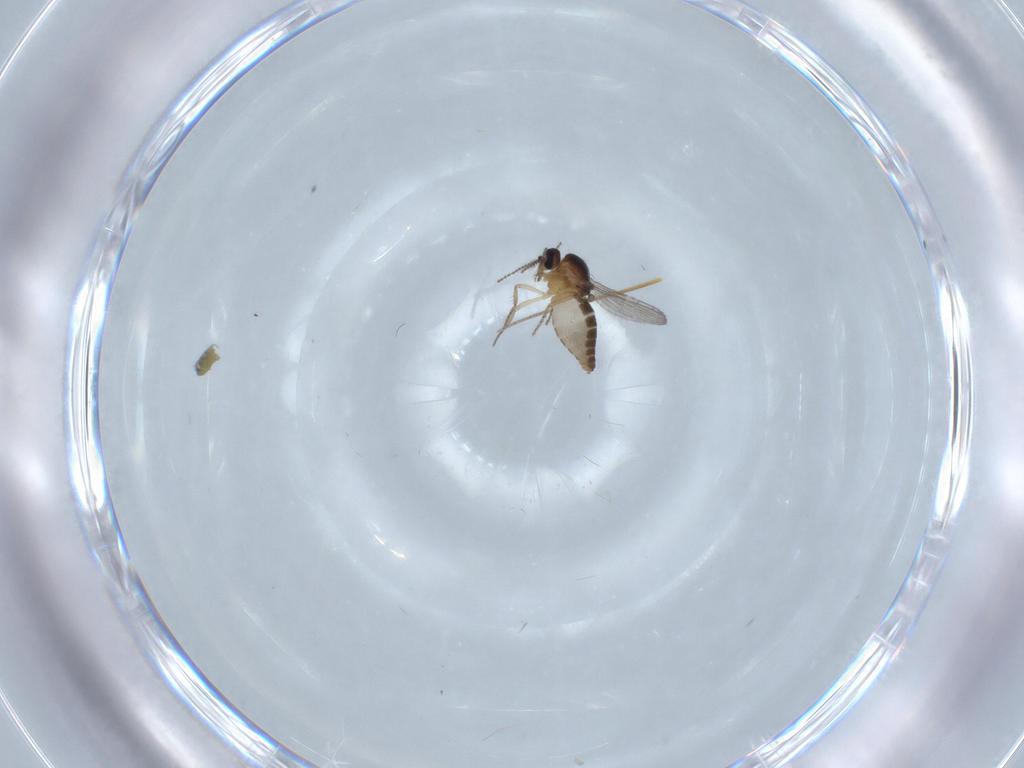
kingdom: Animalia
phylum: Arthropoda
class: Insecta
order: Diptera
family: Ceratopogonidae
